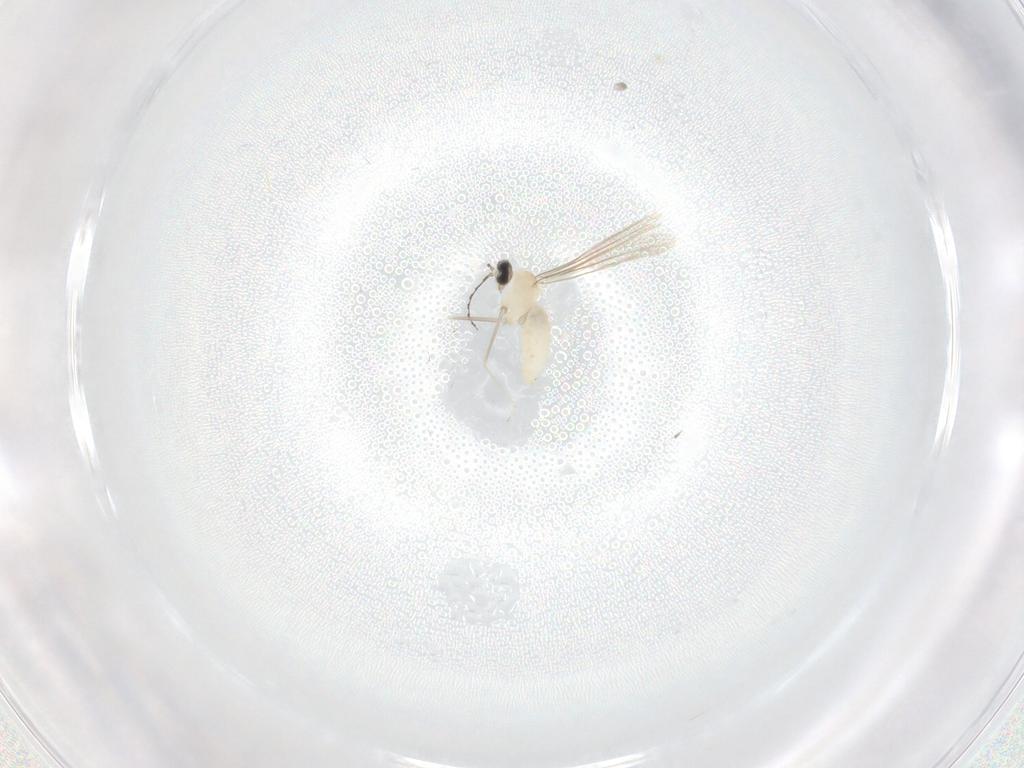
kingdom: Animalia
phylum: Arthropoda
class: Insecta
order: Diptera
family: Cecidomyiidae
